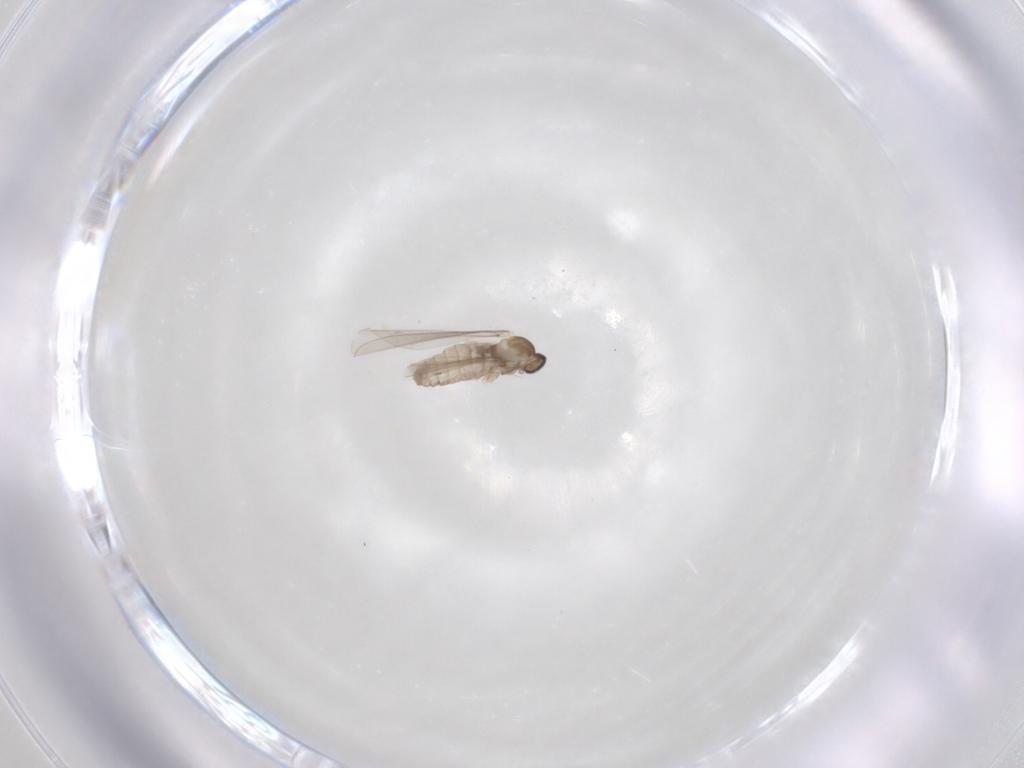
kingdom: Animalia
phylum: Arthropoda
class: Insecta
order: Diptera
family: Cecidomyiidae
